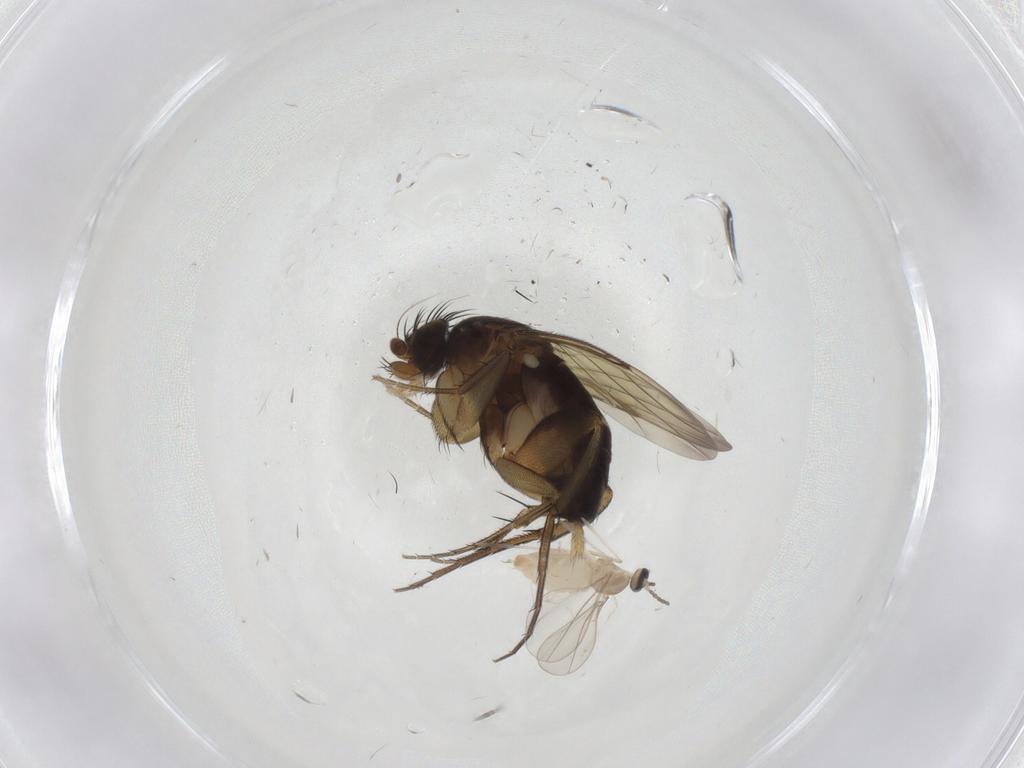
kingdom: Animalia
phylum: Arthropoda
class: Insecta
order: Diptera
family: Phoridae
